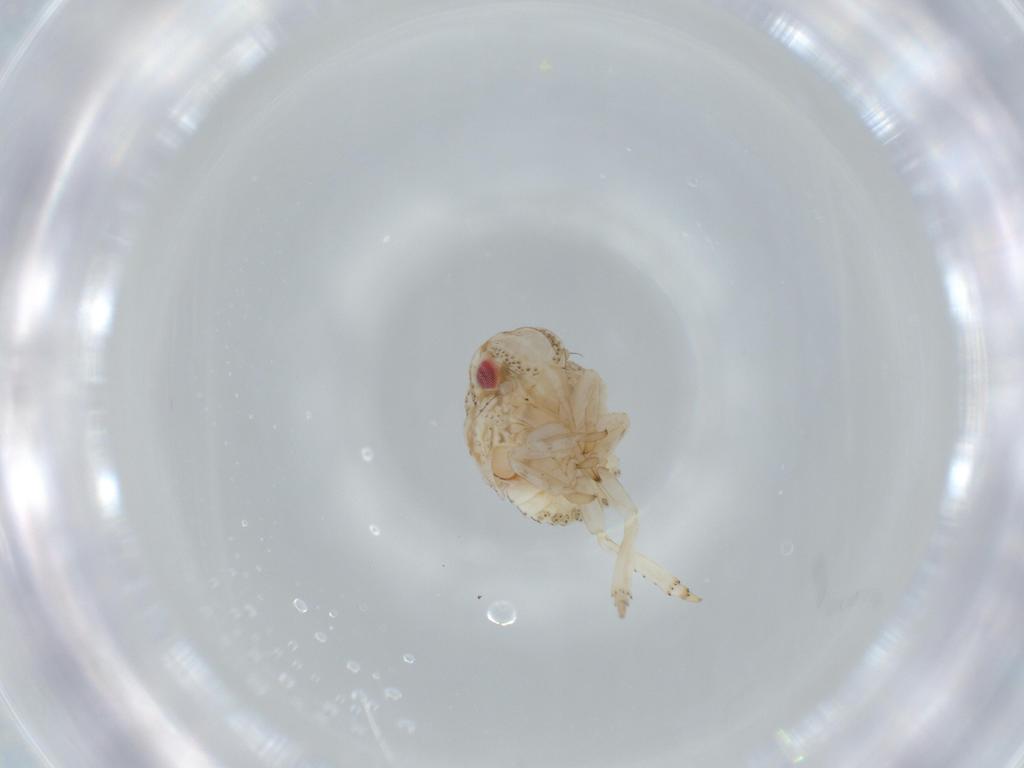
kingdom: Animalia
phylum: Arthropoda
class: Insecta
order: Hemiptera
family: Acanaloniidae
